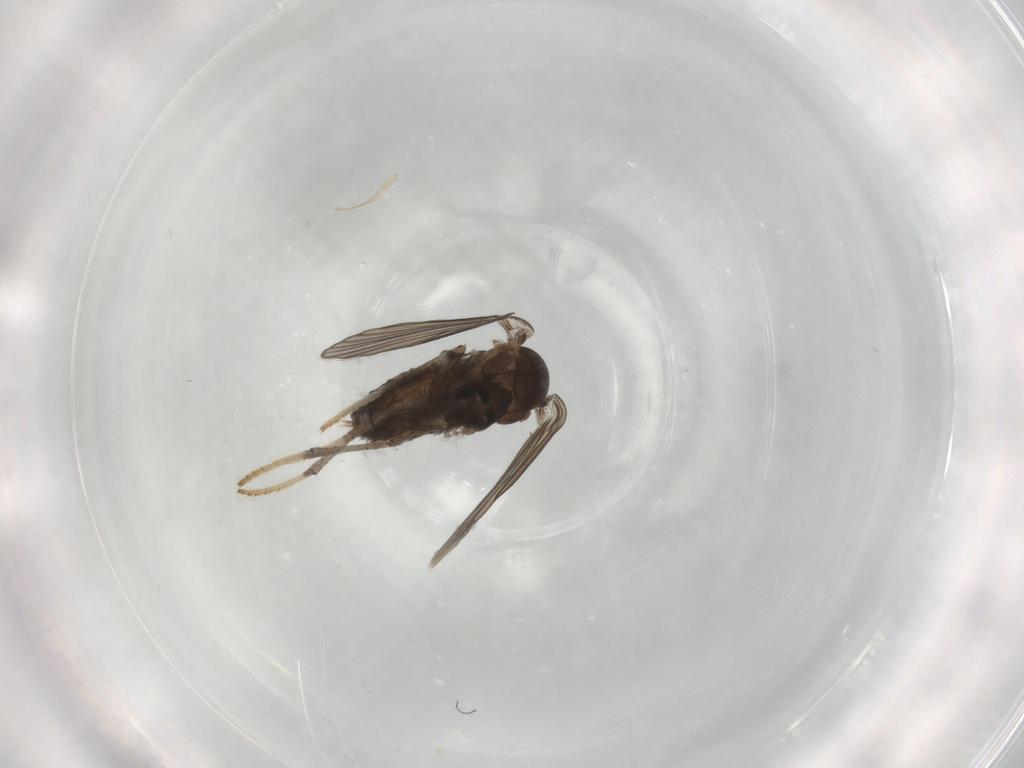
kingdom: Animalia
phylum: Arthropoda
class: Insecta
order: Diptera
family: Psychodidae
